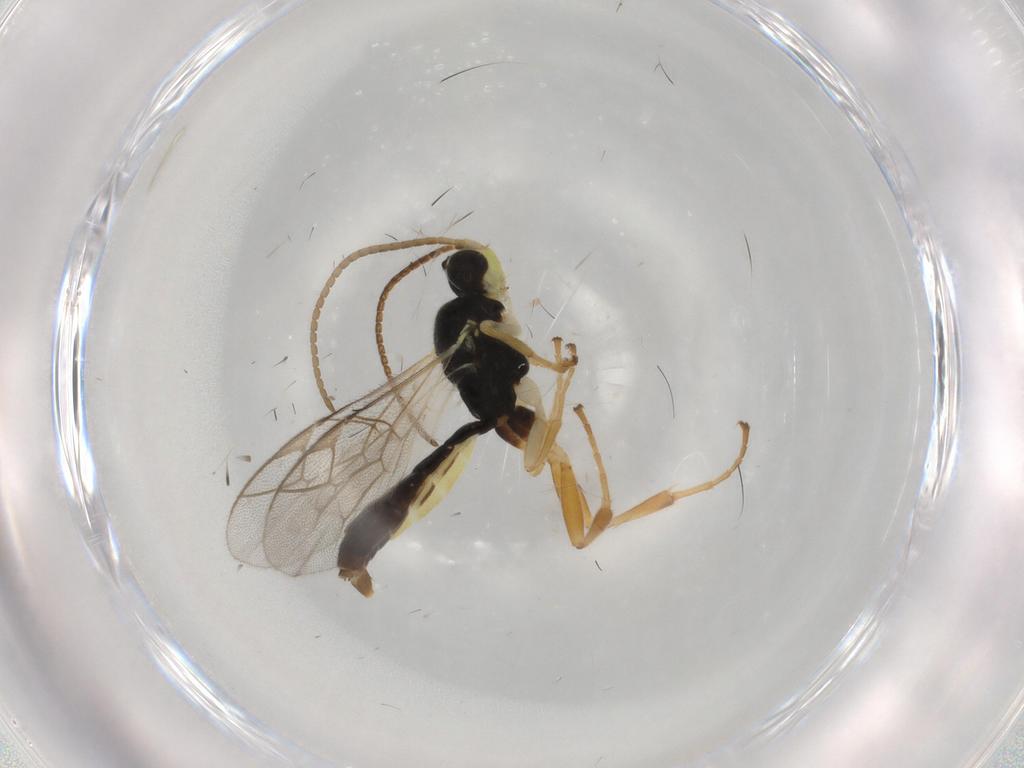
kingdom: Animalia
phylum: Arthropoda
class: Insecta
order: Hymenoptera
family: Ichneumonidae
